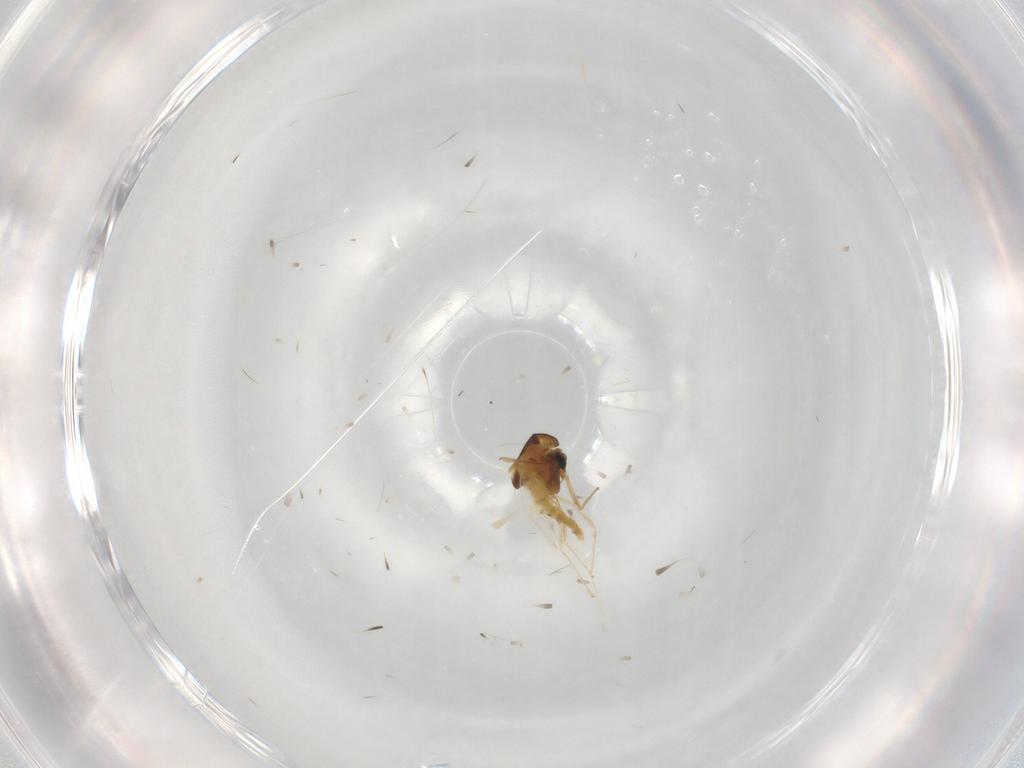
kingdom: Animalia
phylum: Arthropoda
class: Insecta
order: Diptera
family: Chironomidae
